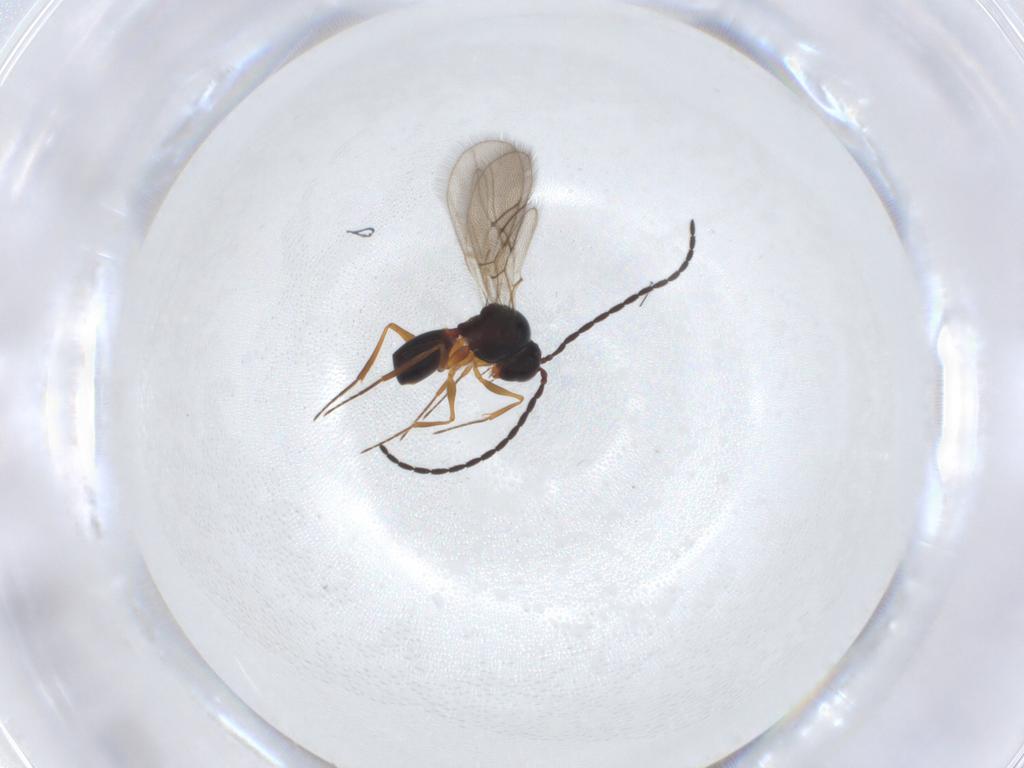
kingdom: Animalia
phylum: Arthropoda
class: Insecta
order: Hymenoptera
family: Figitidae
